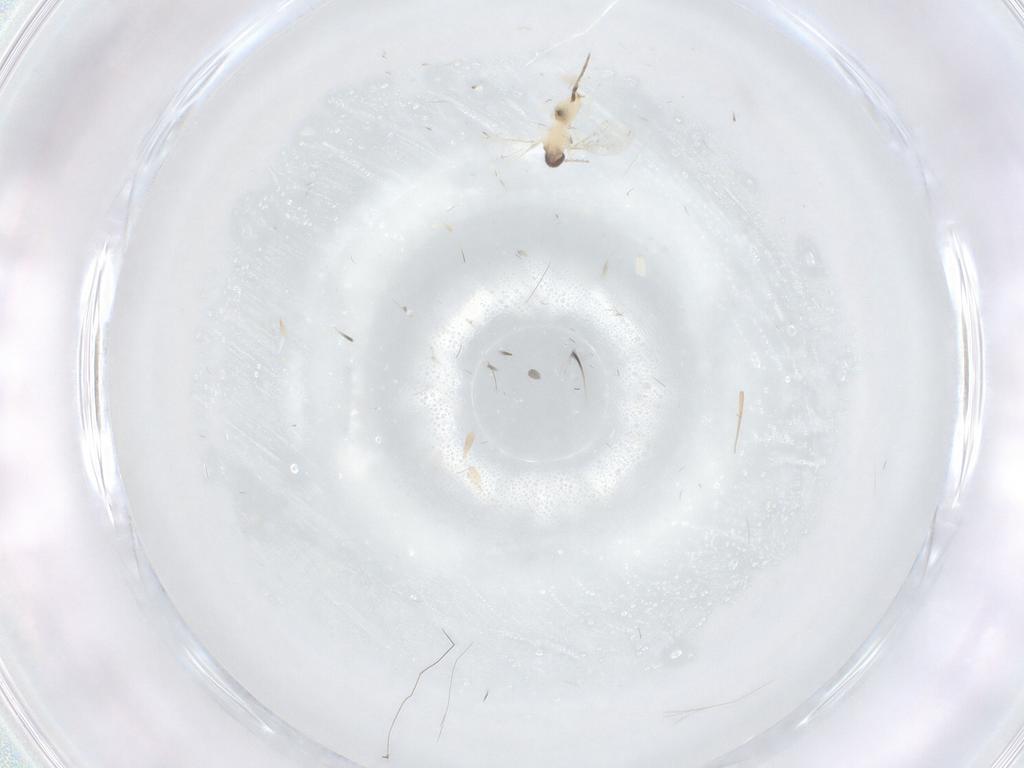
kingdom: Animalia
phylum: Arthropoda
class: Insecta
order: Diptera
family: Cecidomyiidae
